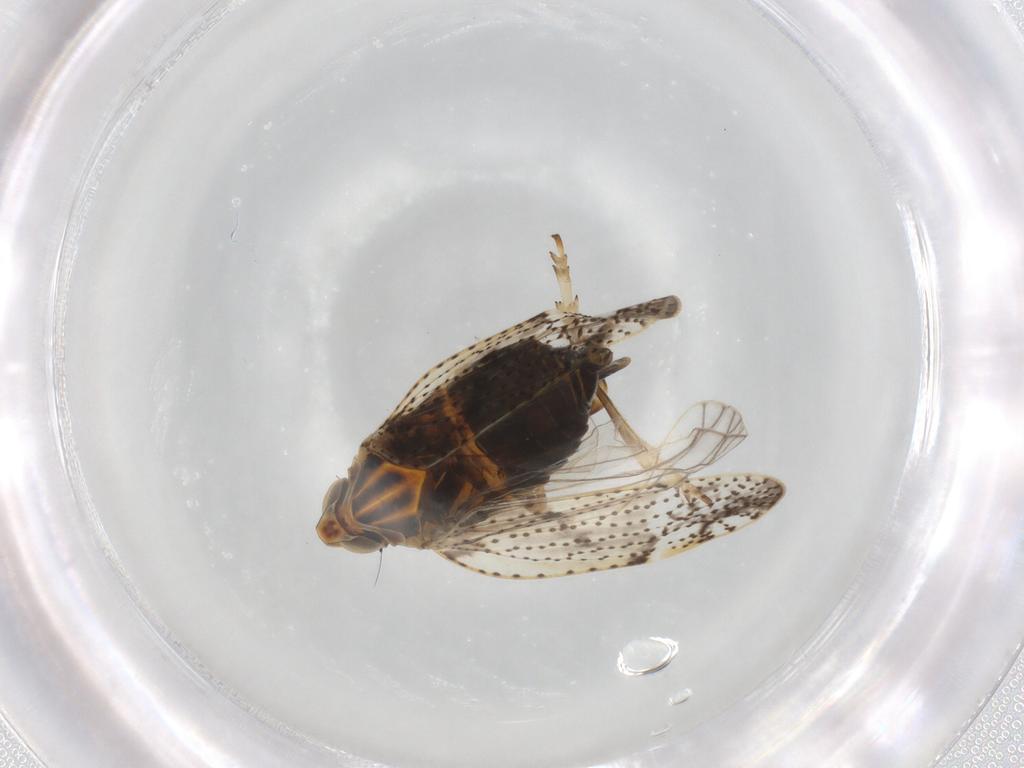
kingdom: Animalia
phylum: Arthropoda
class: Insecta
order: Hemiptera
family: Cixiidae
